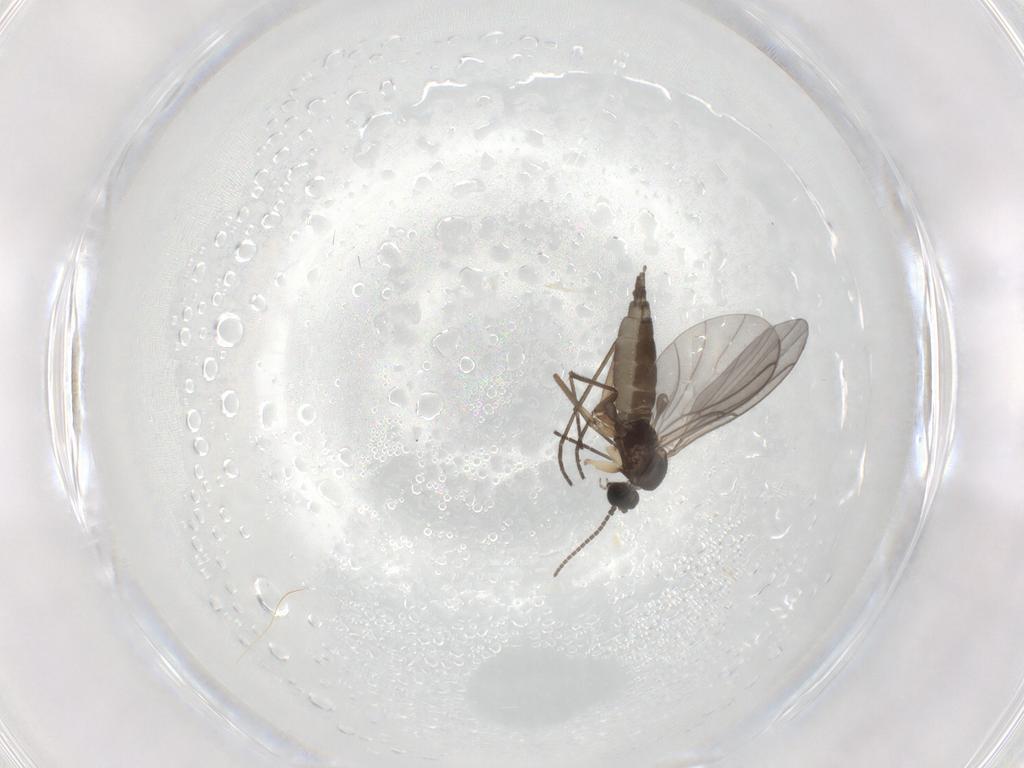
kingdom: Animalia
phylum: Arthropoda
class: Insecta
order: Diptera
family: Sciaridae
